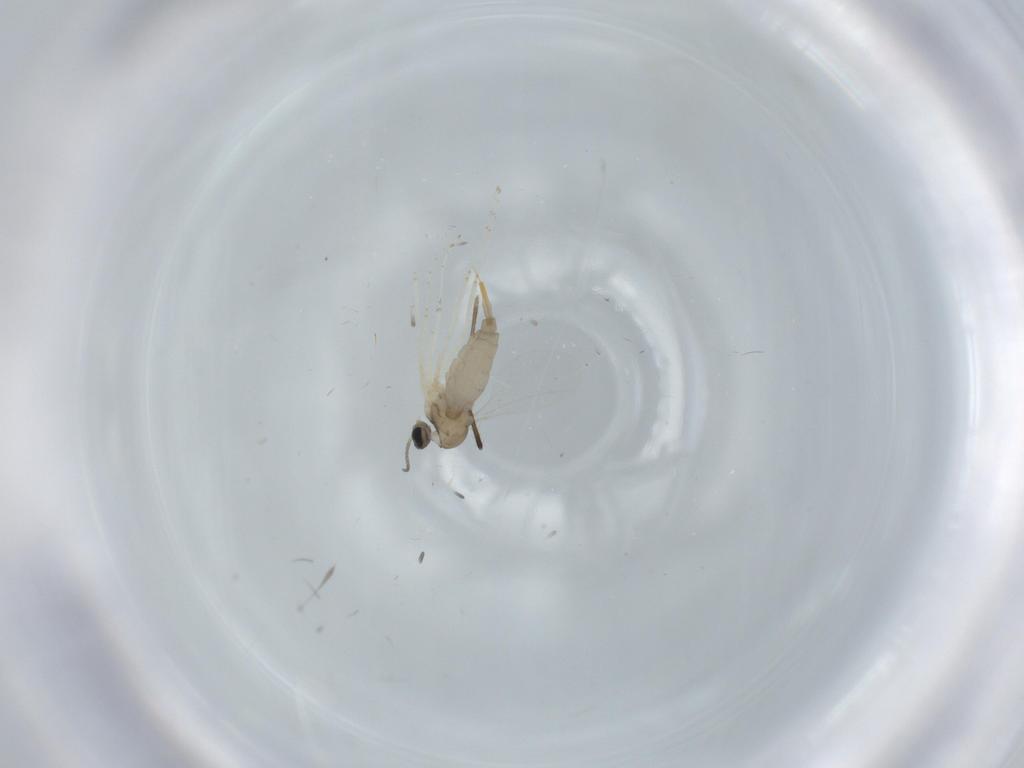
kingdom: Animalia
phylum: Arthropoda
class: Insecta
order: Diptera
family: Cecidomyiidae
